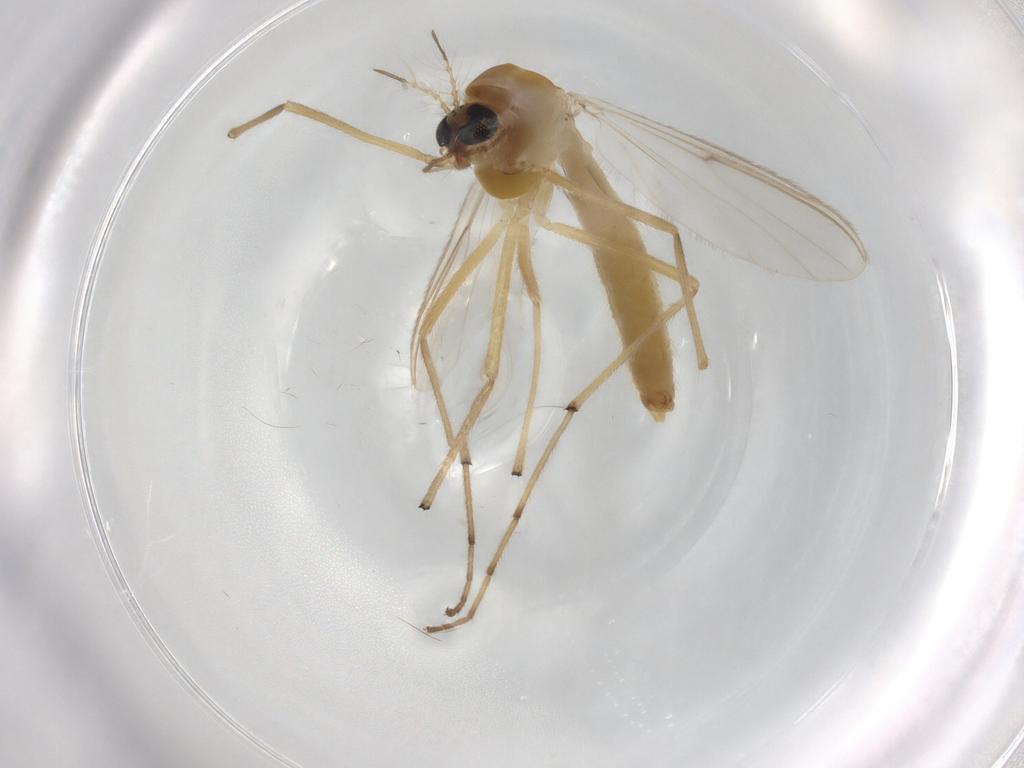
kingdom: Animalia
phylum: Arthropoda
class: Insecta
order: Diptera
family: Chironomidae
